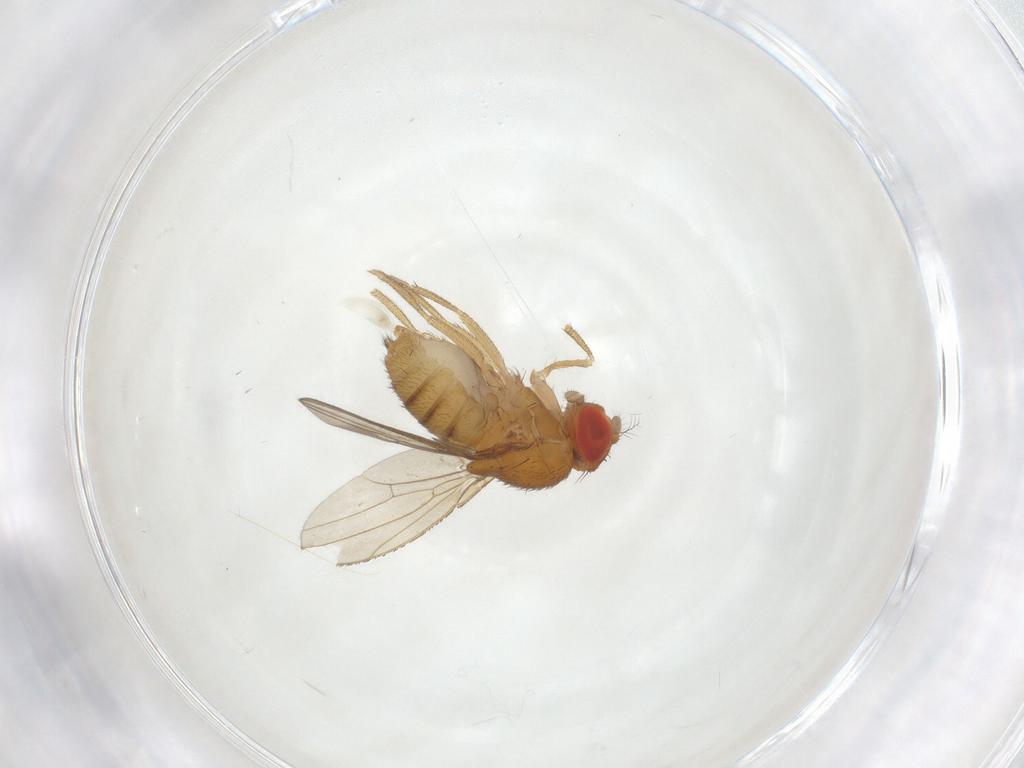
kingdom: Animalia
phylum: Arthropoda
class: Insecta
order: Diptera
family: Drosophilidae
